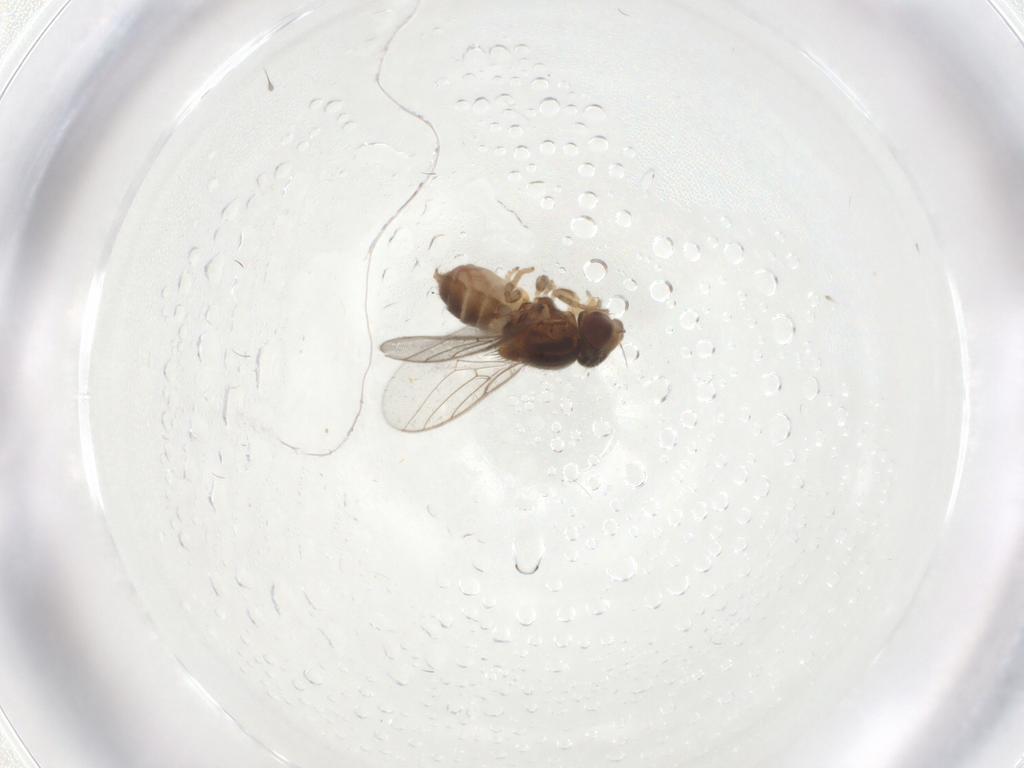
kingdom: Animalia
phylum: Arthropoda
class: Insecta
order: Diptera
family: Chloropidae
